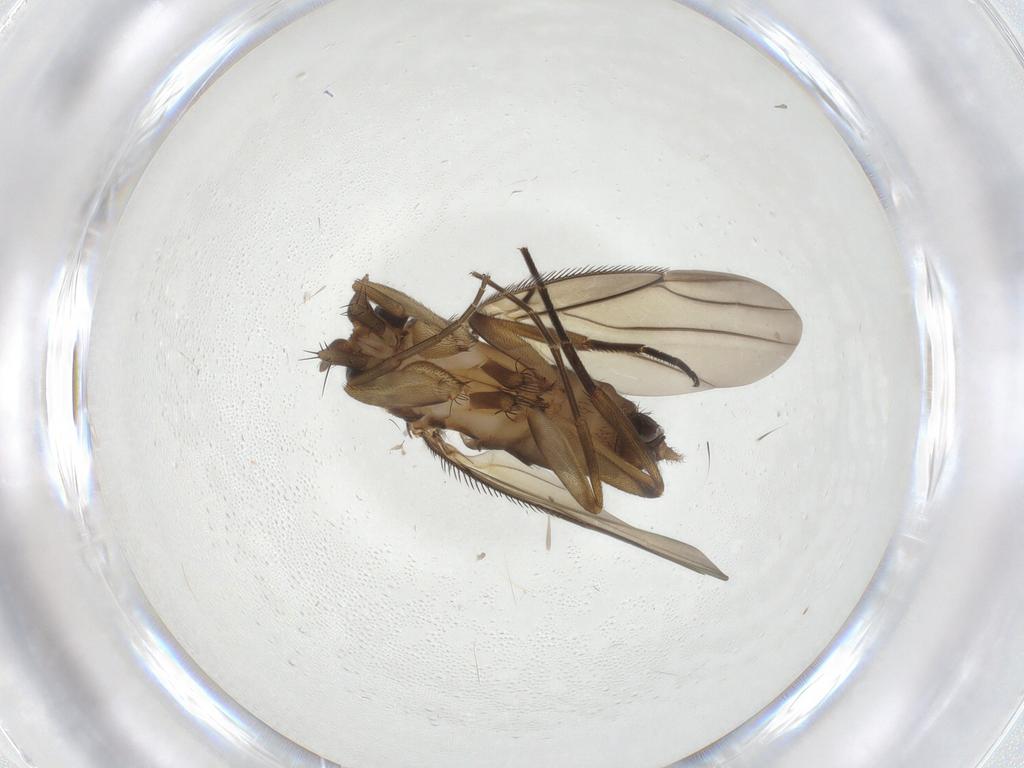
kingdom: Animalia
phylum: Arthropoda
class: Insecta
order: Diptera
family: Phoridae
